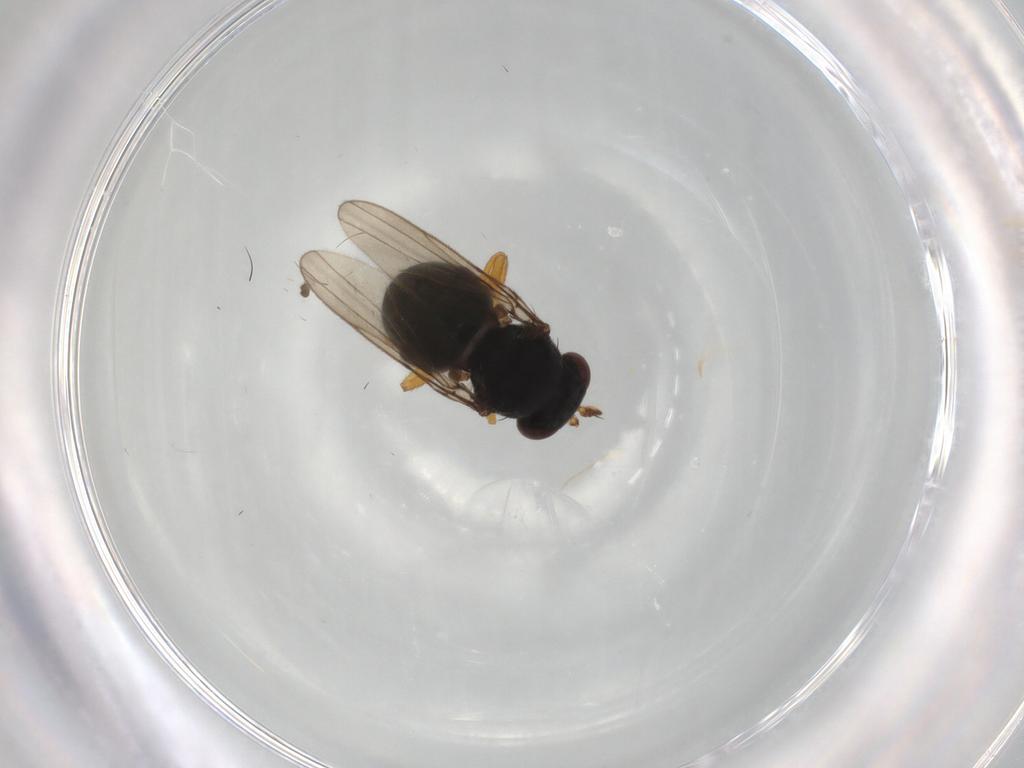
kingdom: Animalia
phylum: Arthropoda
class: Insecta
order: Diptera
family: Ephydridae
